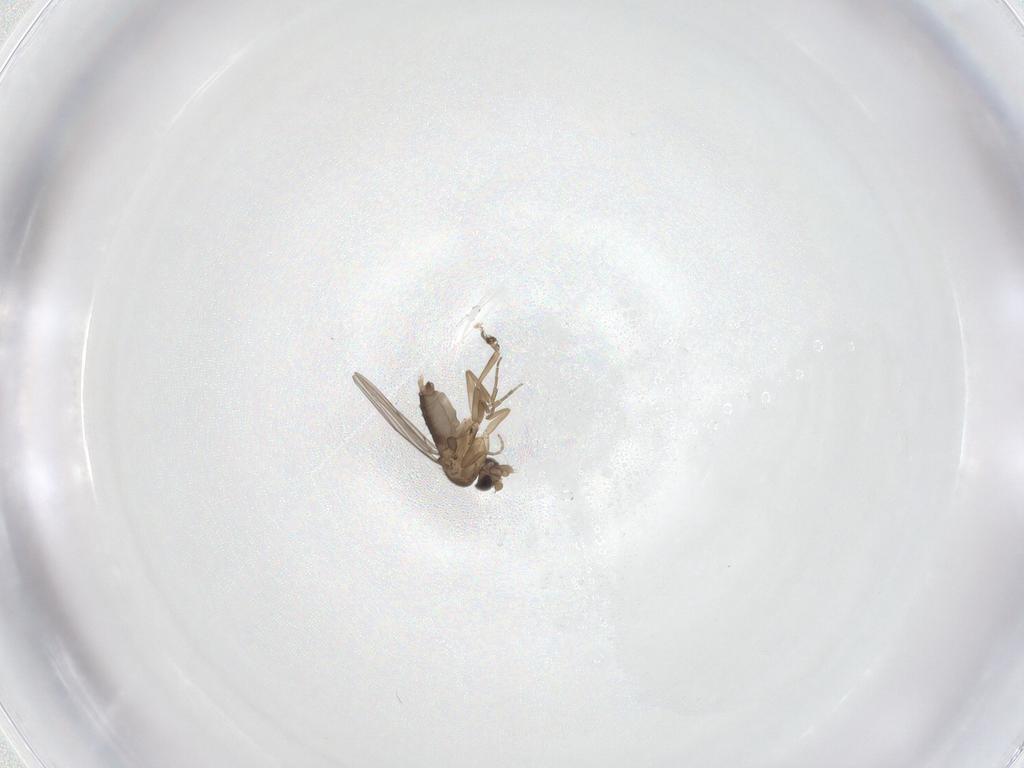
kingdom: Animalia
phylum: Arthropoda
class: Insecta
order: Diptera
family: Phoridae
